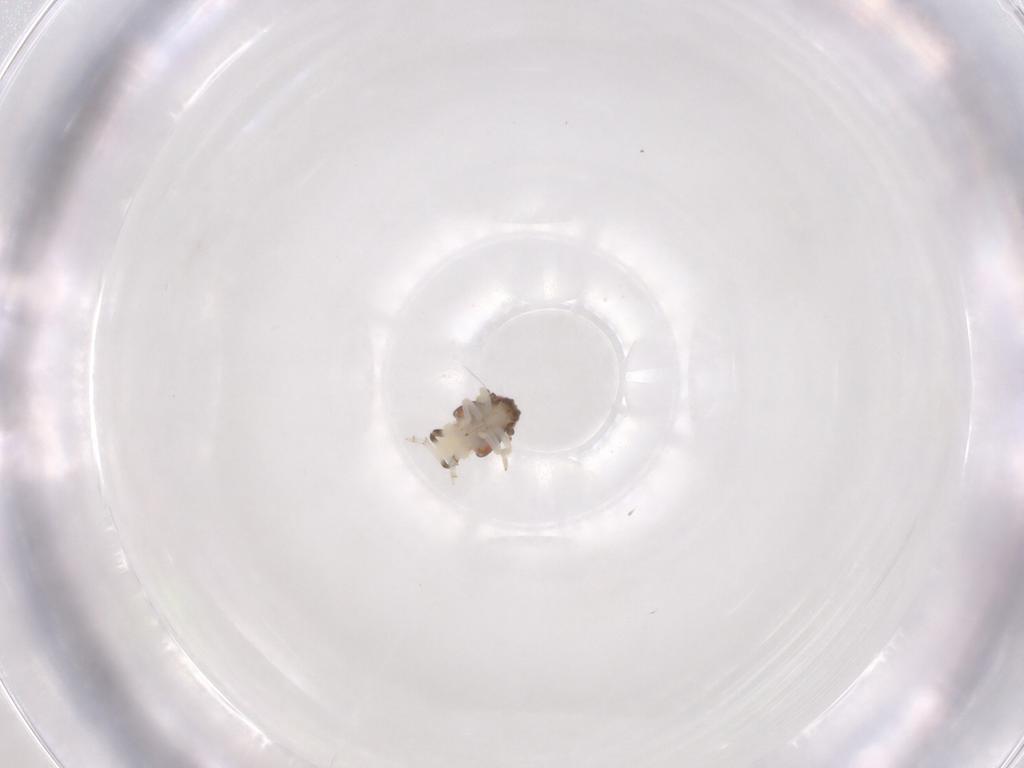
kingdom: Animalia
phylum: Arthropoda
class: Insecta
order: Hemiptera
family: Nogodinidae
